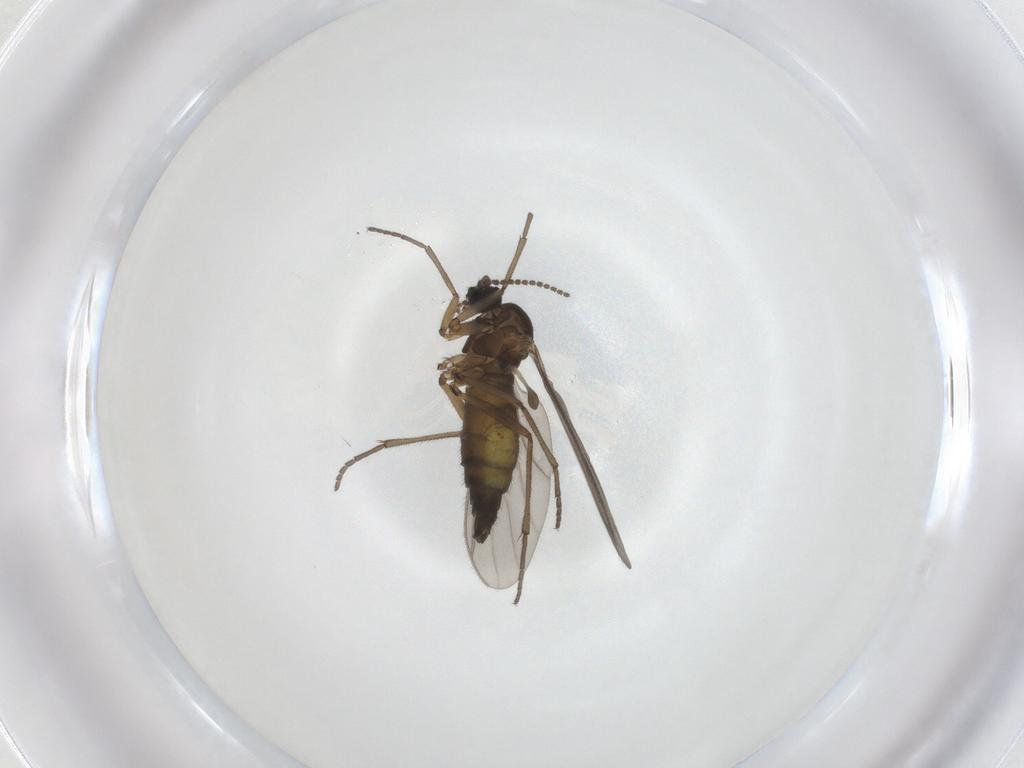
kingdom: Animalia
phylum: Arthropoda
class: Insecta
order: Diptera
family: Sciaridae
